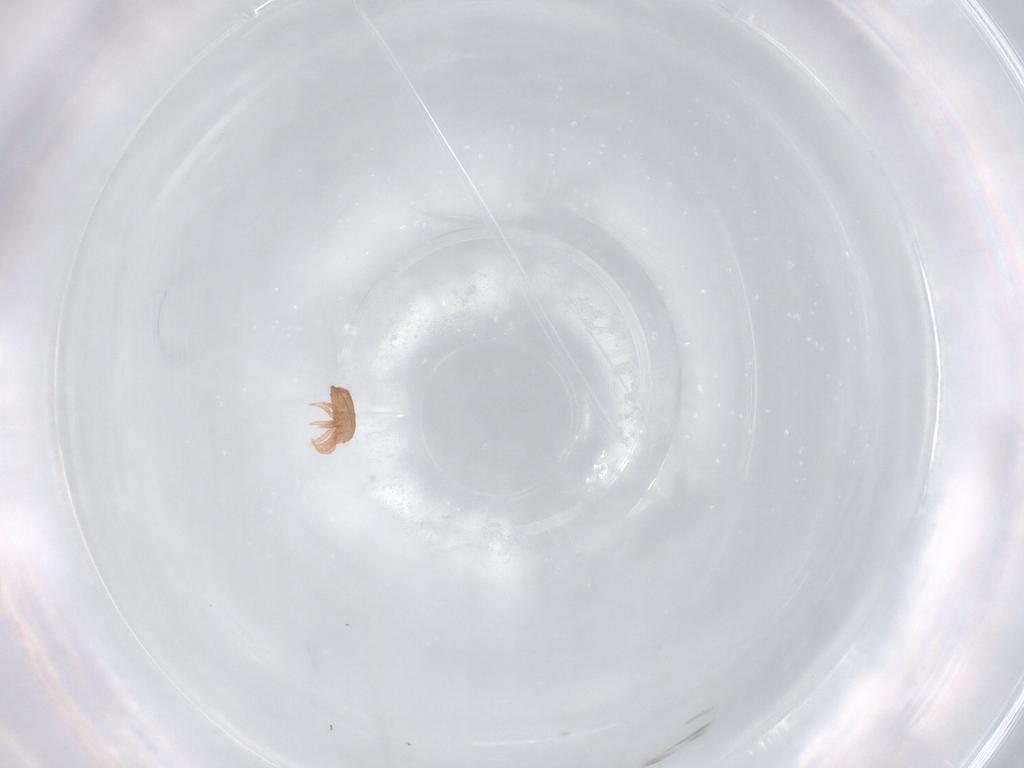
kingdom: Animalia
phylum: Arthropoda
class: Arachnida
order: Mesostigmata
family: Zerconidae
